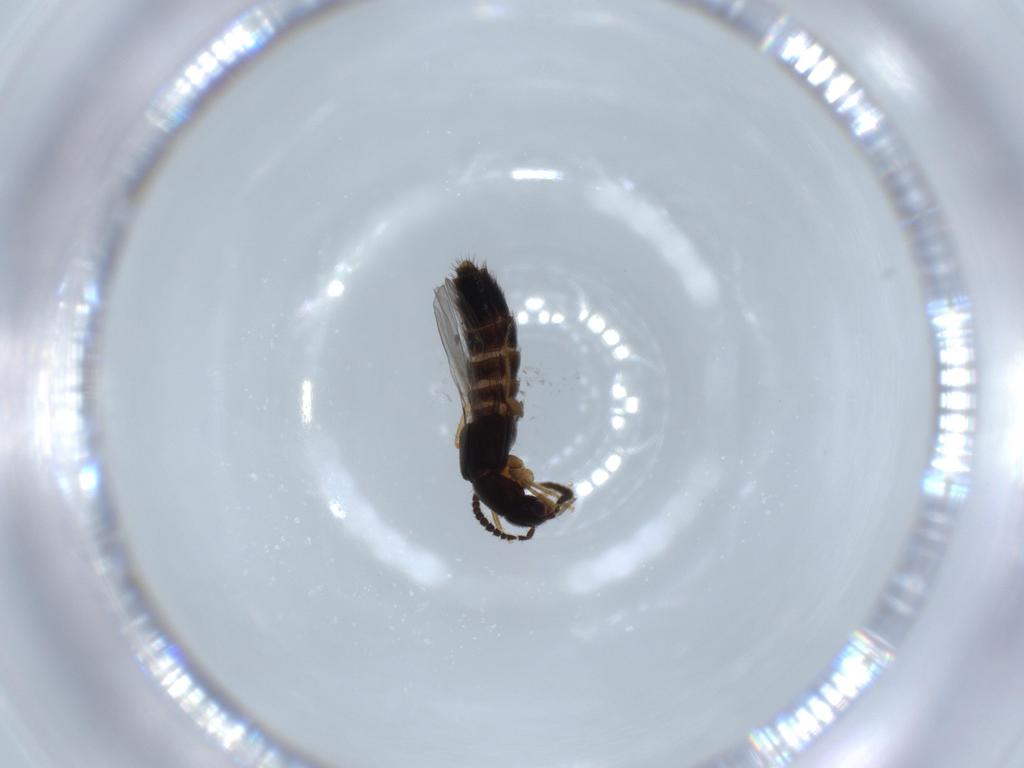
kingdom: Animalia
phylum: Arthropoda
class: Insecta
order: Coleoptera
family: Staphylinidae
